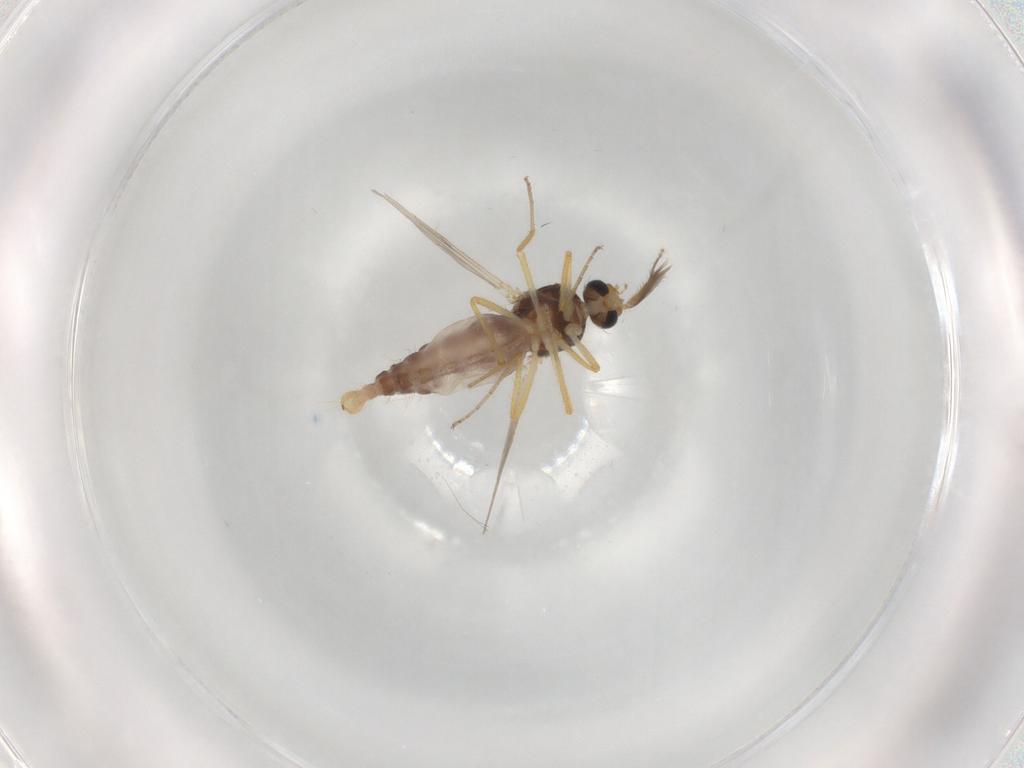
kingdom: Animalia
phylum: Arthropoda
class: Insecta
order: Diptera
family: Ceratopogonidae
